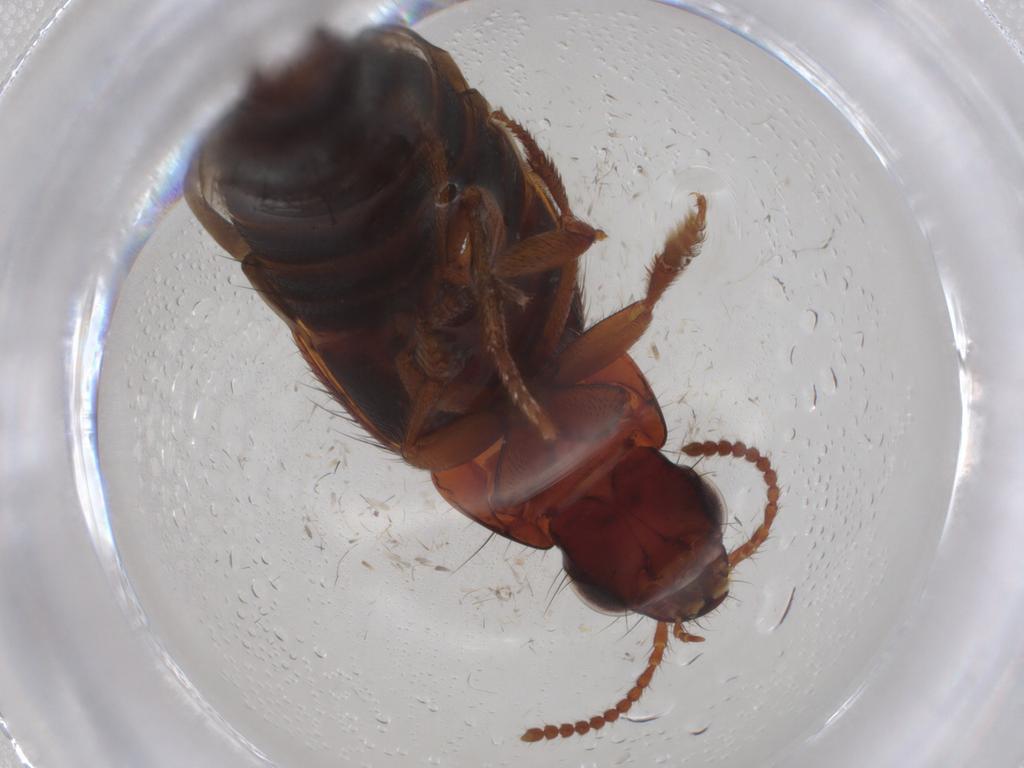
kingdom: Animalia
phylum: Arthropoda
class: Insecta
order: Coleoptera
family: Staphylinidae
